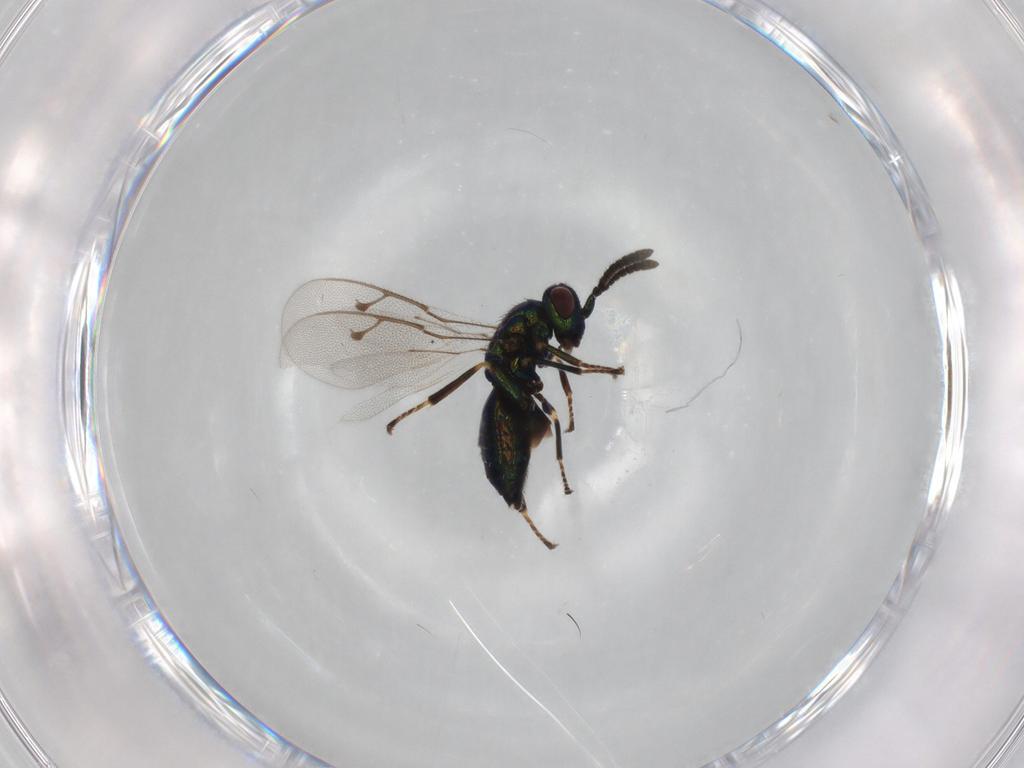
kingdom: Animalia
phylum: Arthropoda
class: Insecta
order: Hymenoptera
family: Pteromalidae
